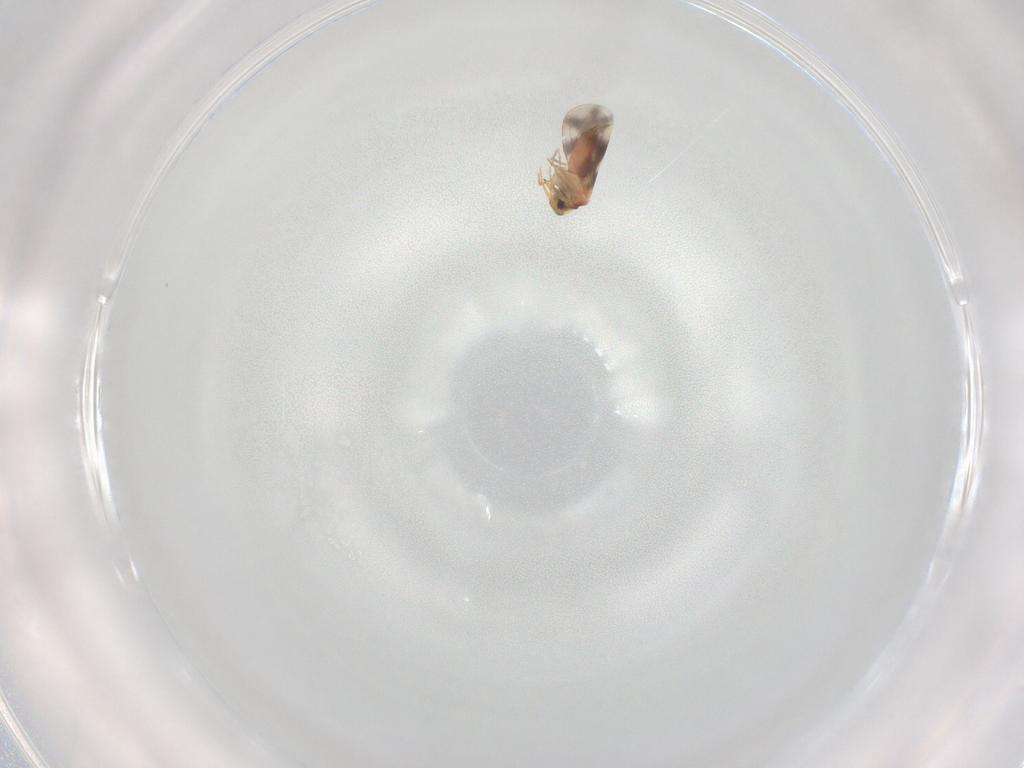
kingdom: Animalia
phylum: Arthropoda
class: Insecta
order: Hemiptera
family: Aleyrodidae
